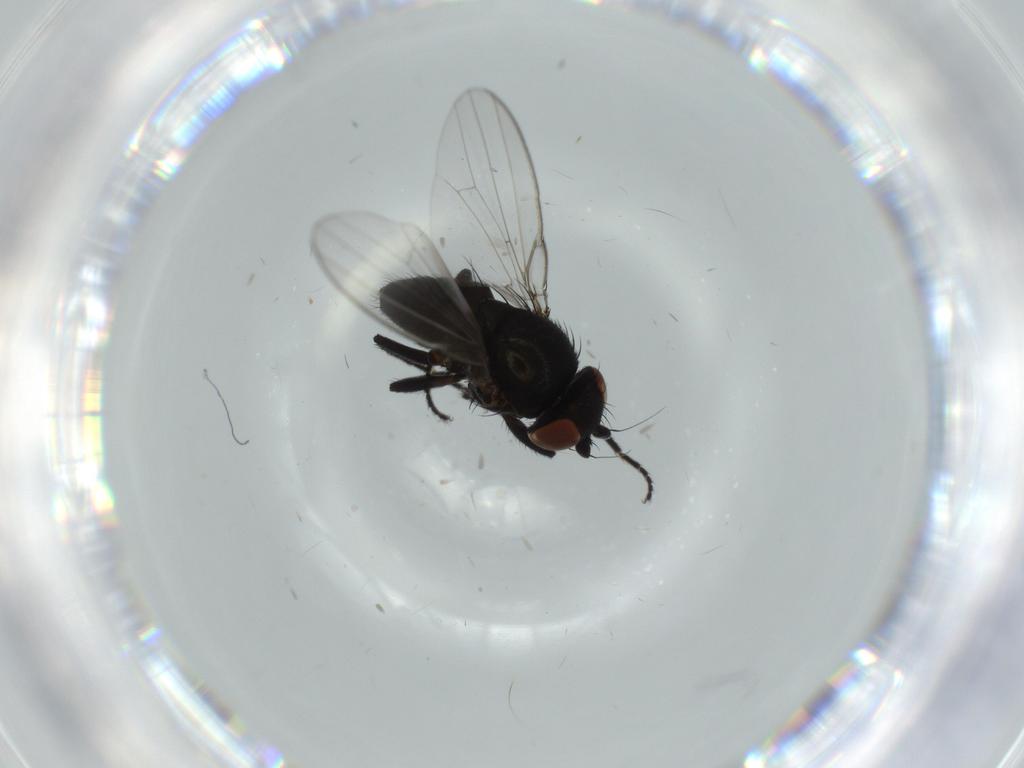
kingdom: Animalia
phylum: Arthropoda
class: Insecta
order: Diptera
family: Milichiidae
